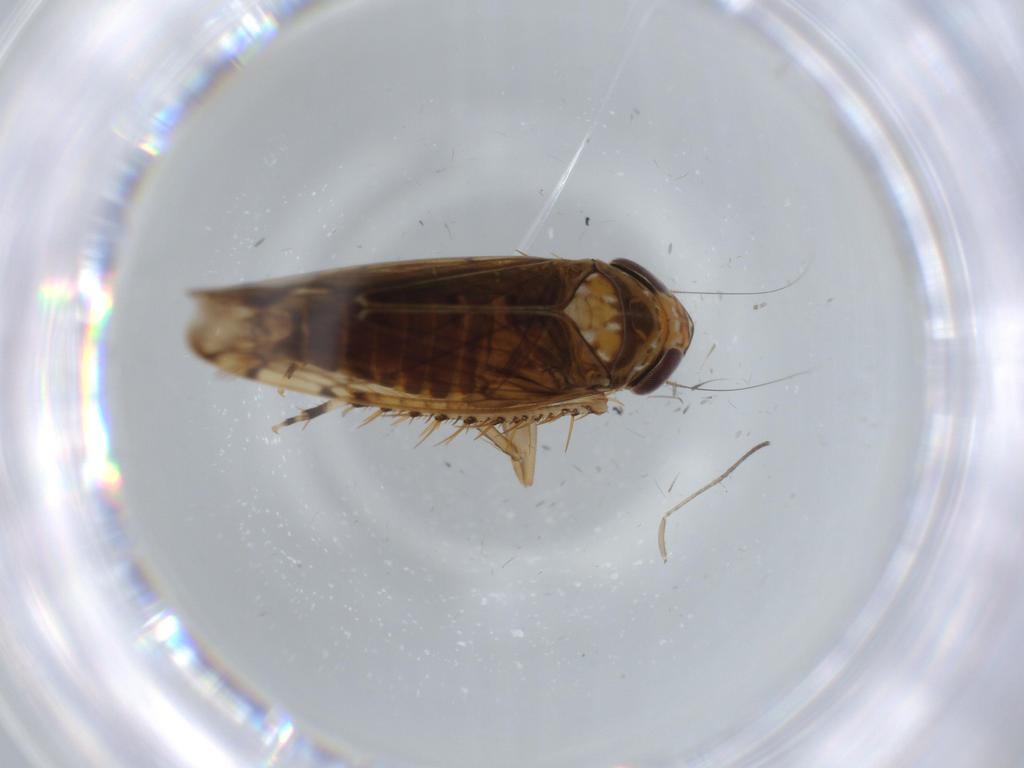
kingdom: Animalia
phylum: Arthropoda
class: Insecta
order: Hemiptera
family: Cicadellidae
